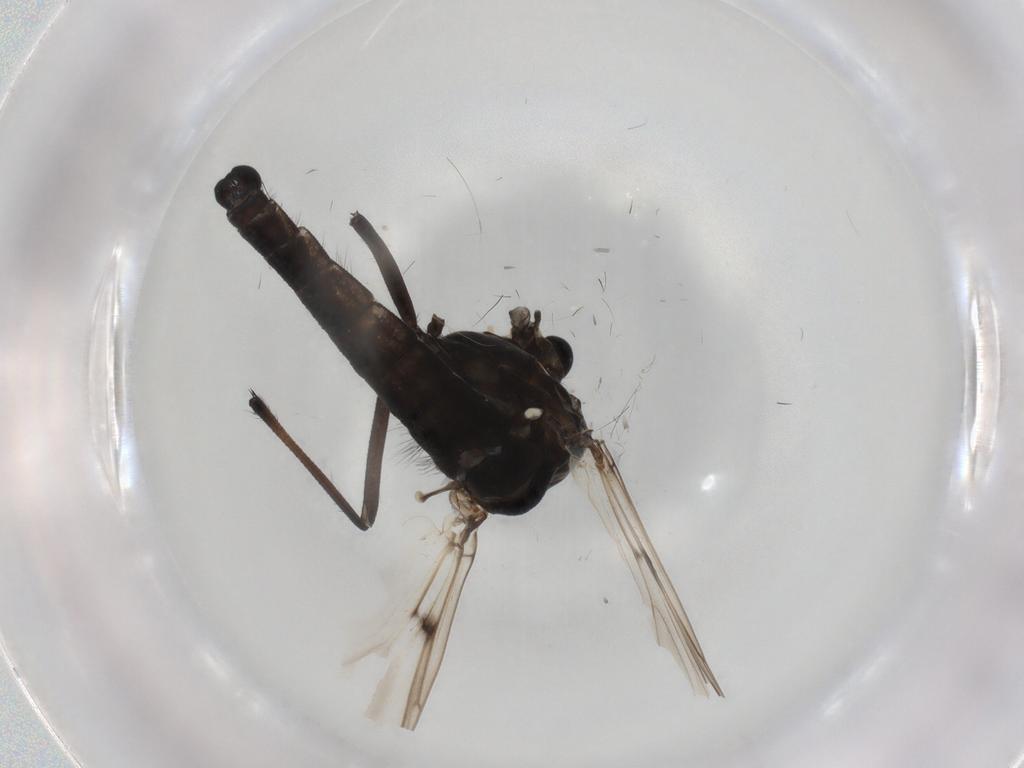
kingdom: Animalia
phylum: Arthropoda
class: Insecta
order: Diptera
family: Chironomidae
